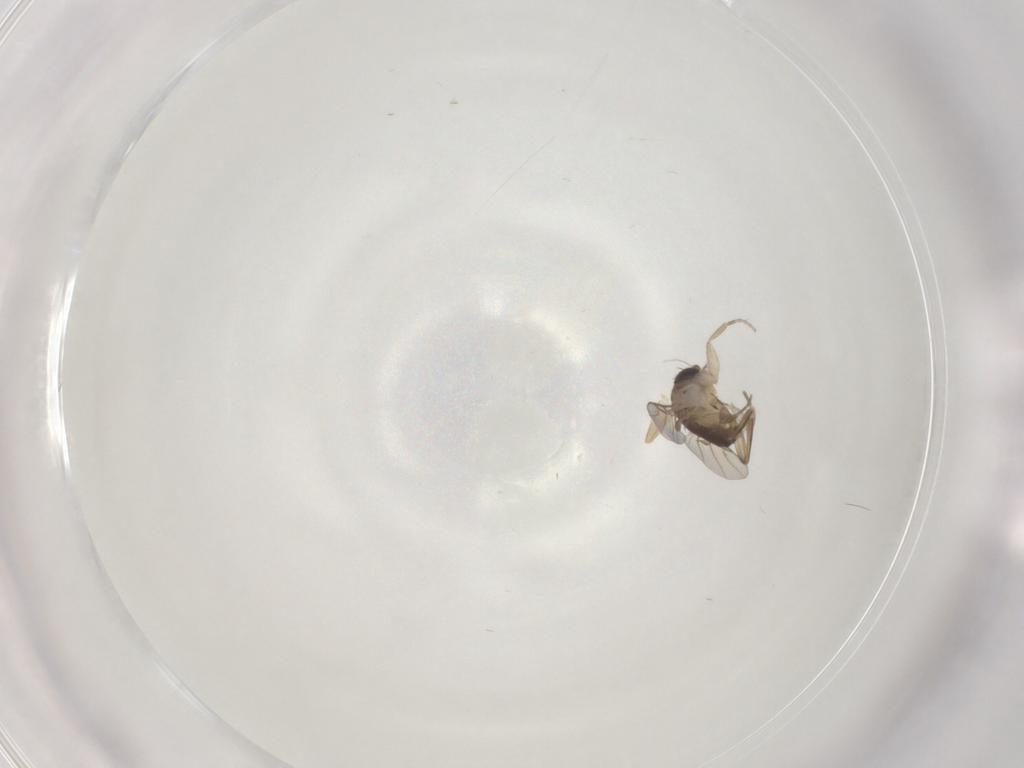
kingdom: Animalia
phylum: Arthropoda
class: Insecta
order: Diptera
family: Phoridae
